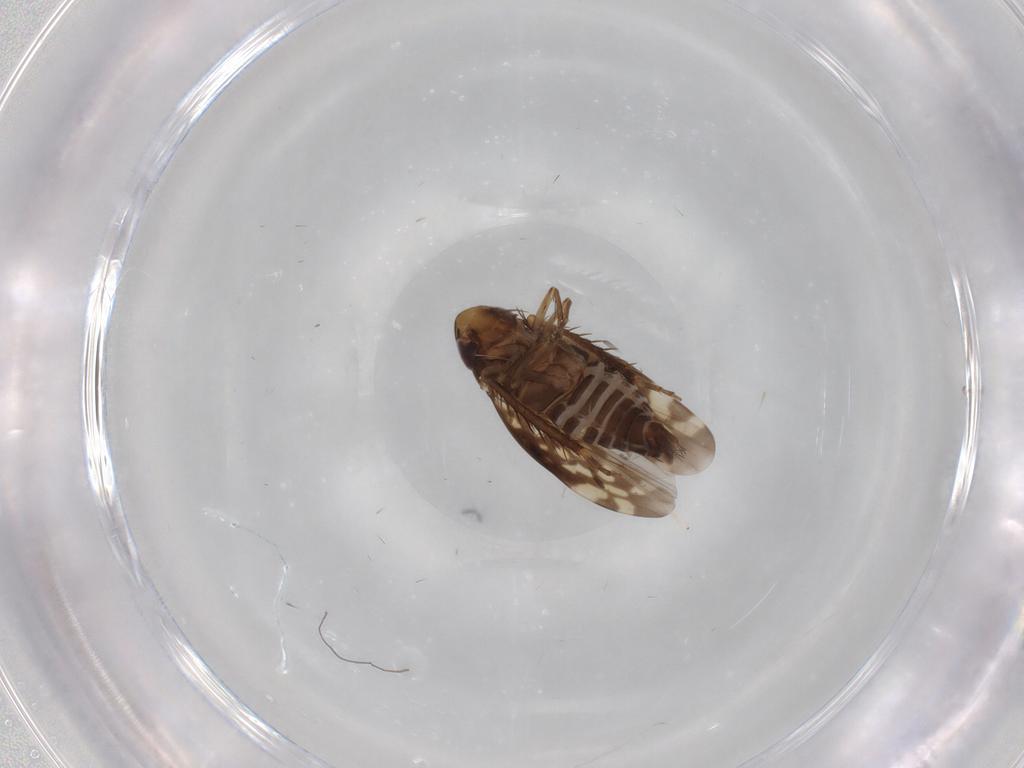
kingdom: Animalia
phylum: Arthropoda
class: Insecta
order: Hemiptera
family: Cicadellidae
